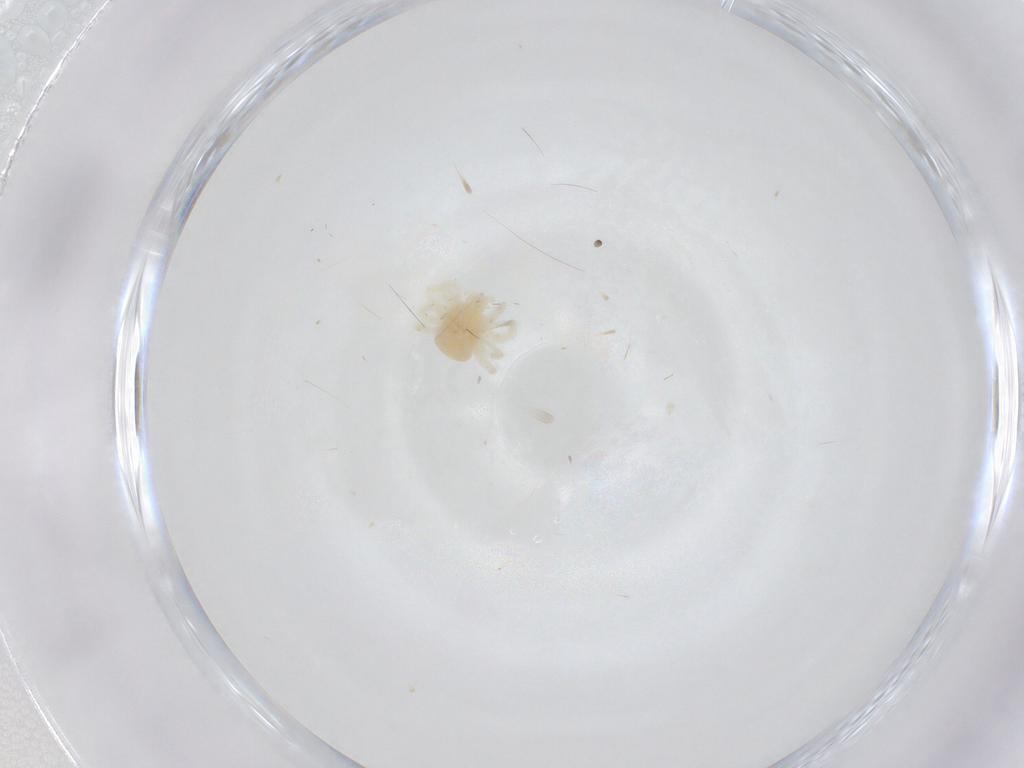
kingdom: Animalia
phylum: Arthropoda
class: Arachnida
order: Trombidiformes
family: Anystidae
